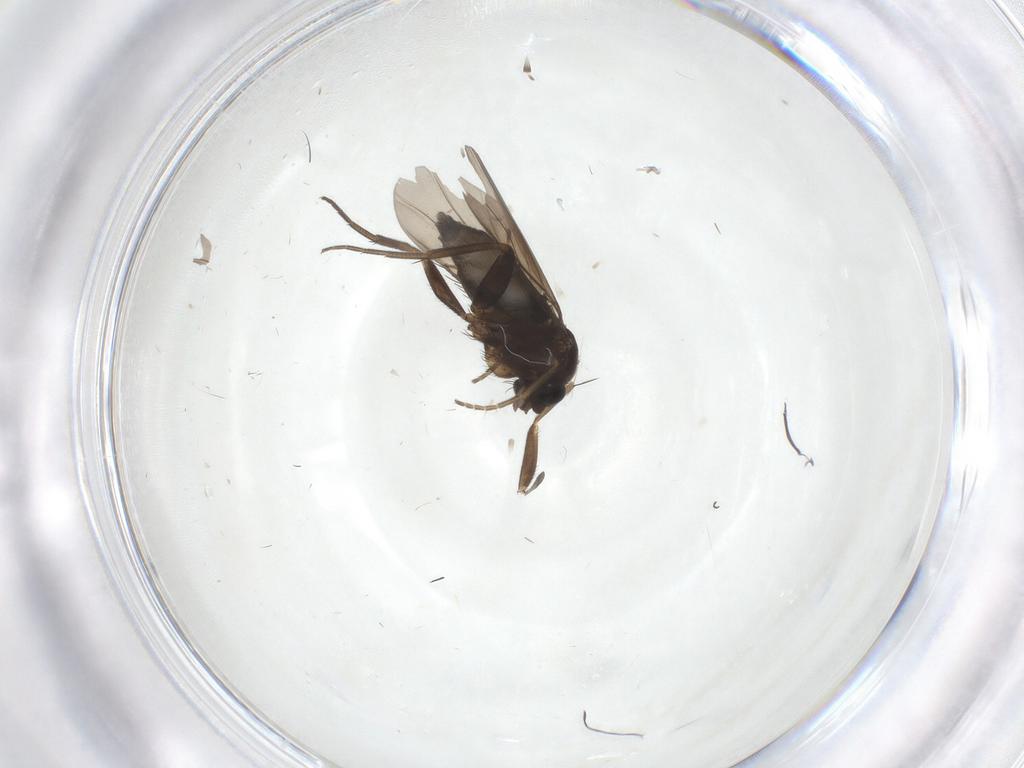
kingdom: Animalia
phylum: Arthropoda
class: Insecta
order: Diptera
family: Phoridae
